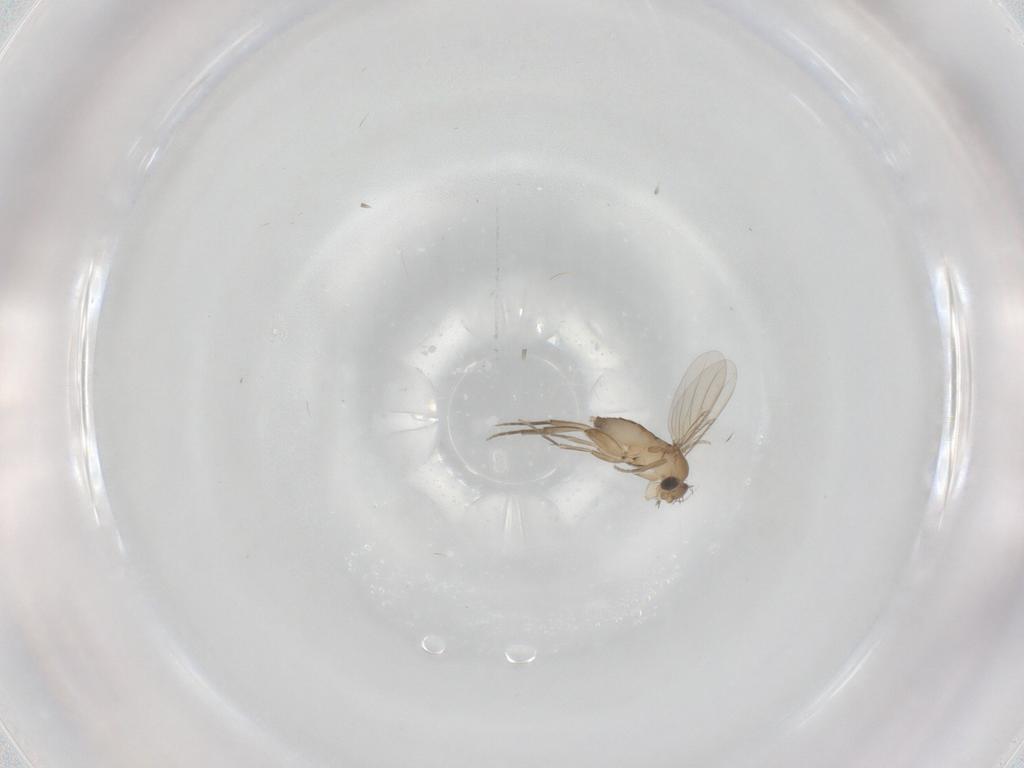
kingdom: Animalia
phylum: Arthropoda
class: Insecta
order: Diptera
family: Phoridae
